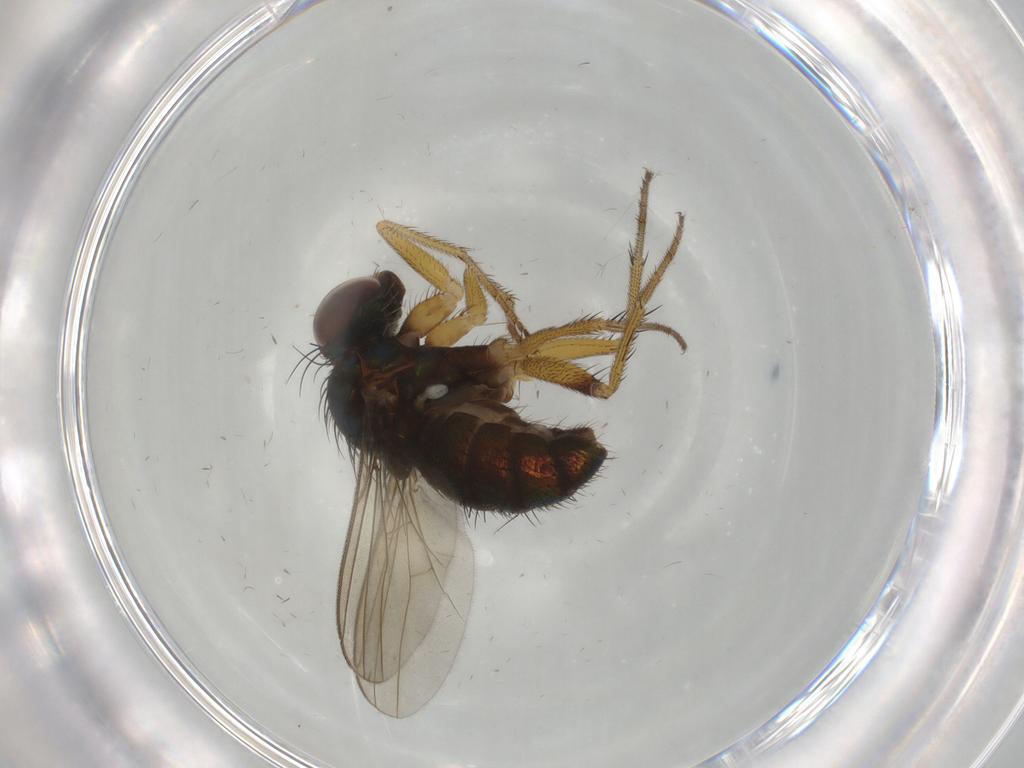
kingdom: Animalia
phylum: Arthropoda
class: Insecta
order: Diptera
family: Dolichopodidae
